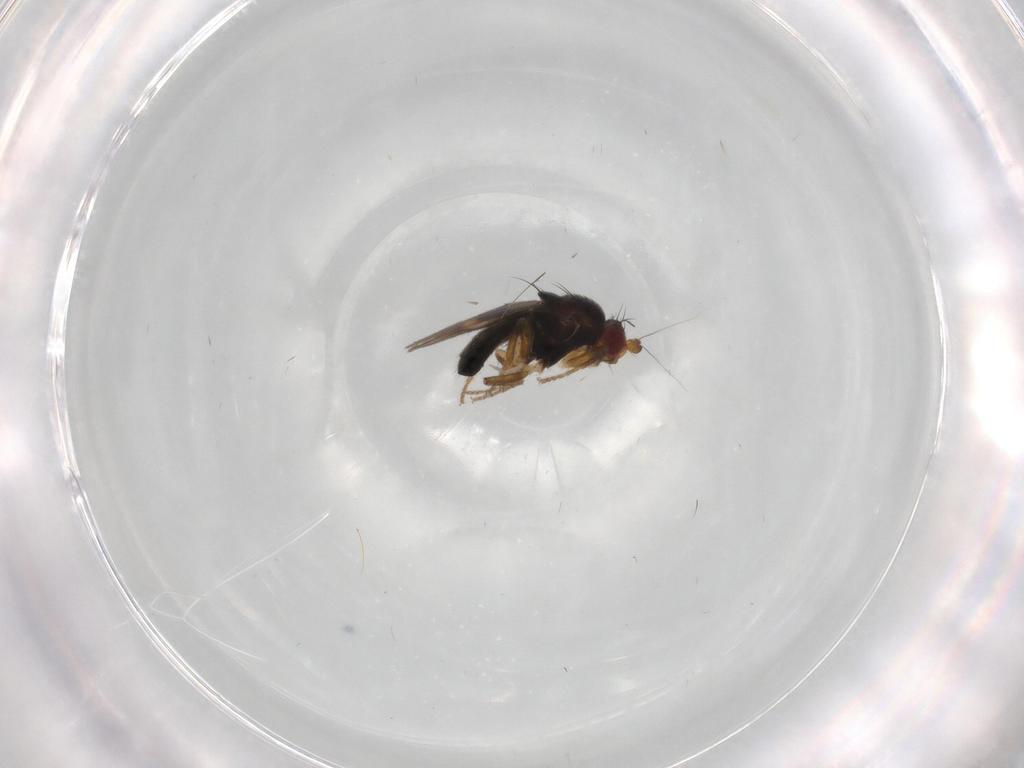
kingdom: Animalia
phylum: Arthropoda
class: Insecta
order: Diptera
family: Sphaeroceridae
